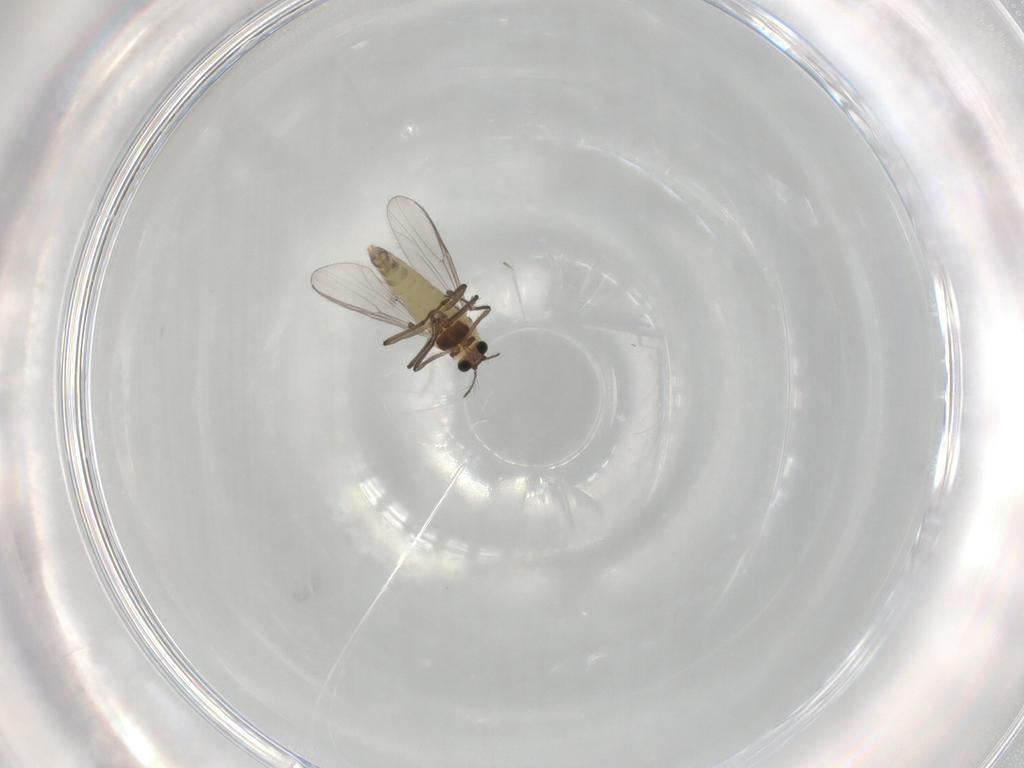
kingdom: Animalia
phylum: Arthropoda
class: Insecta
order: Diptera
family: Chironomidae
